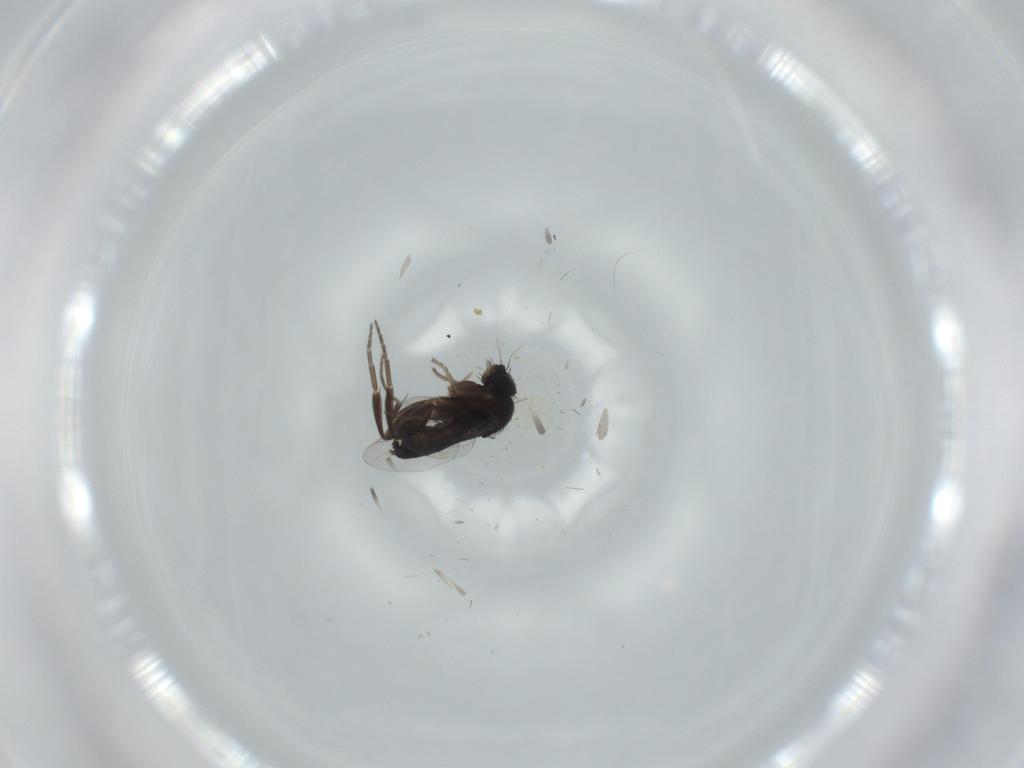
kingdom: Animalia
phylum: Arthropoda
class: Insecta
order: Diptera
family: Phoridae
